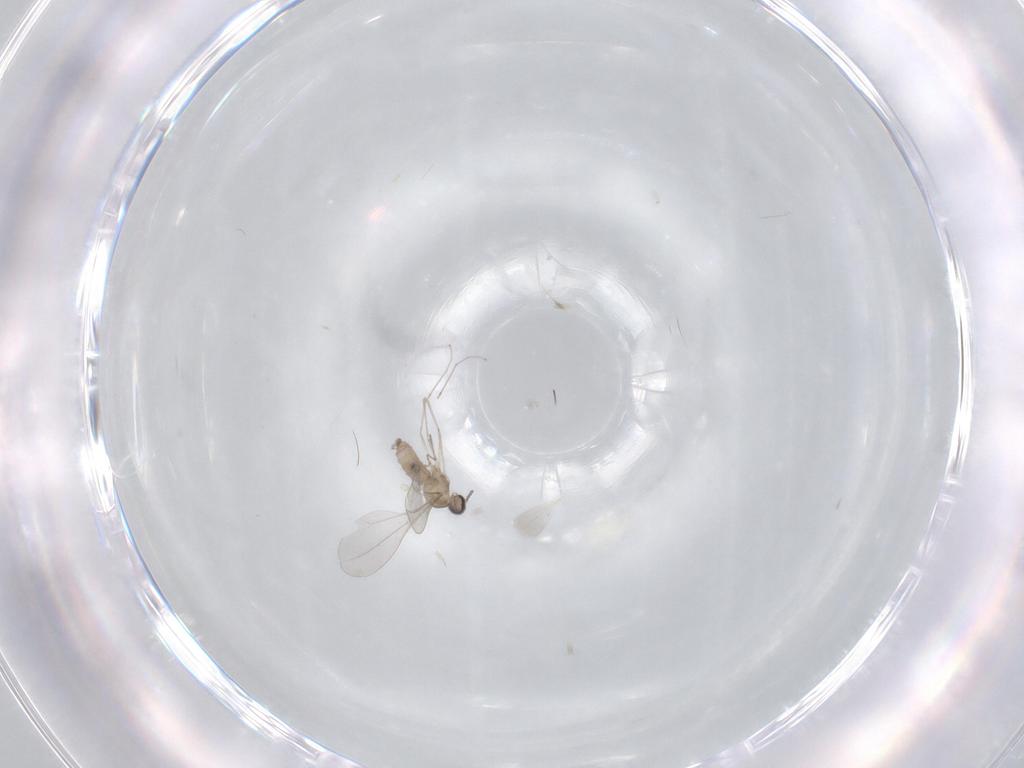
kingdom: Animalia
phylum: Arthropoda
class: Insecta
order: Diptera
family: Cecidomyiidae
